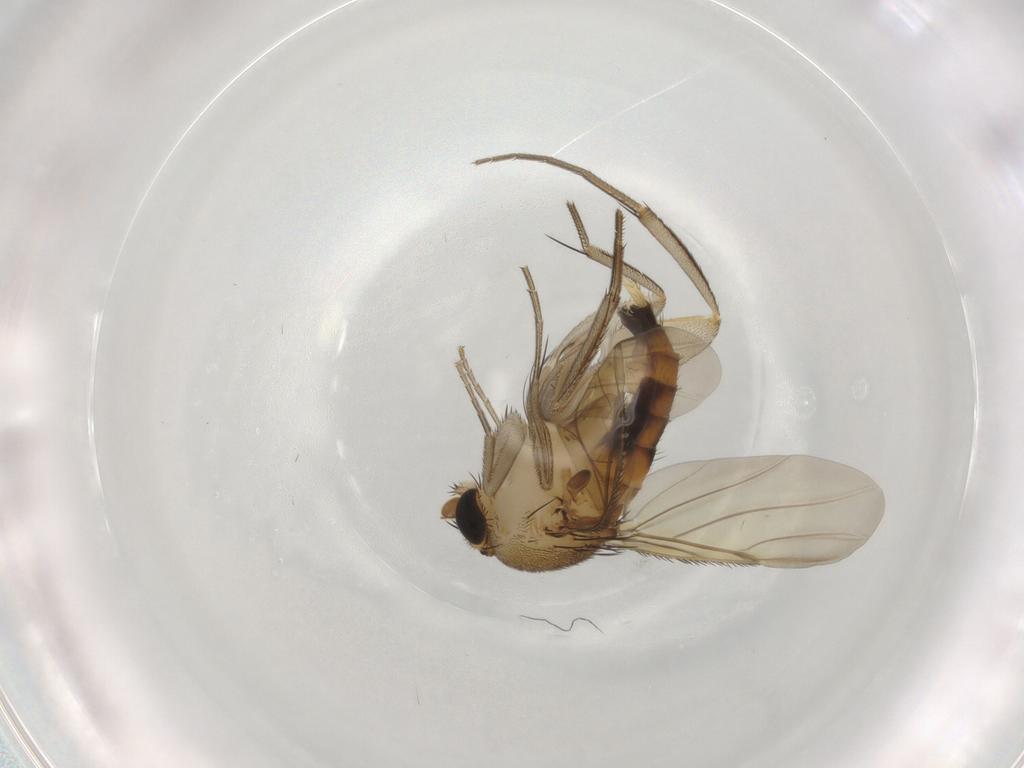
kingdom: Animalia
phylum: Arthropoda
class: Insecta
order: Diptera
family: Phoridae
